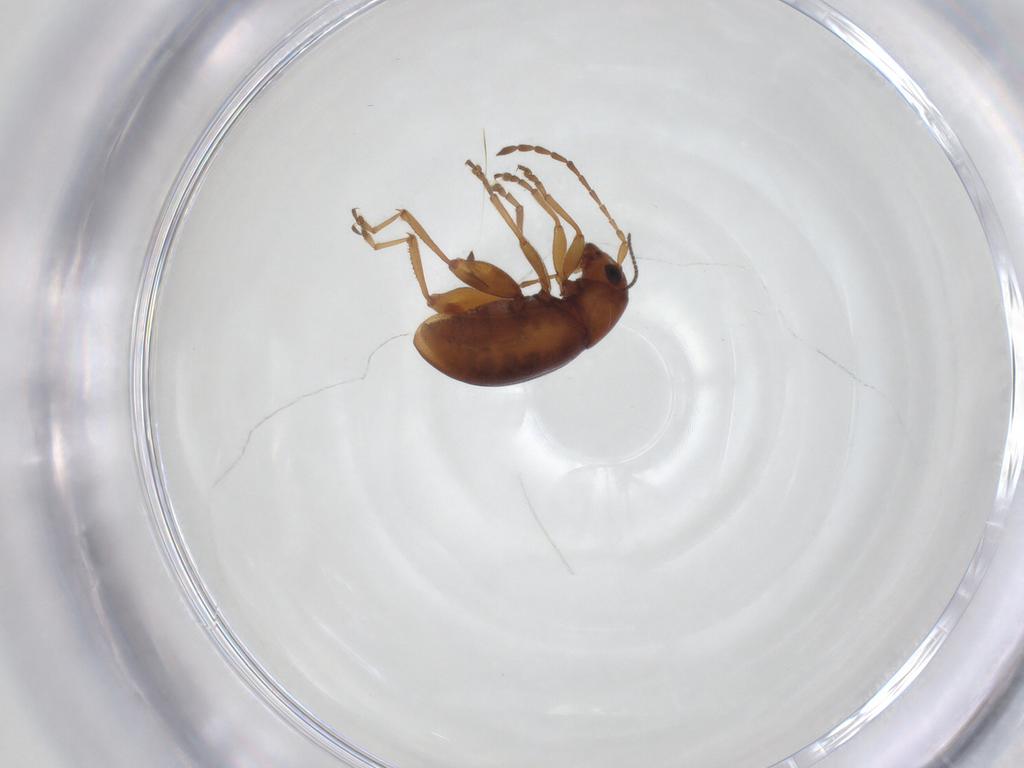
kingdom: Animalia
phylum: Arthropoda
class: Insecta
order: Coleoptera
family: Chrysomelidae
